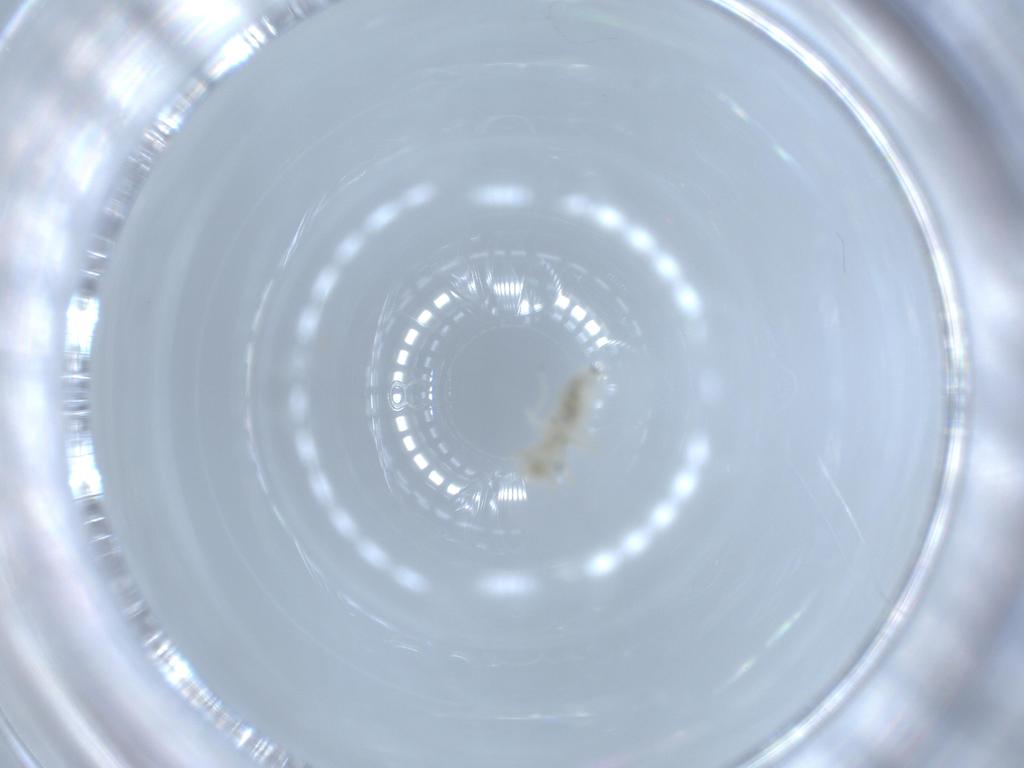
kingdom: Animalia
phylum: Arthropoda
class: Insecta
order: Psocodea
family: Caeciliusidae
